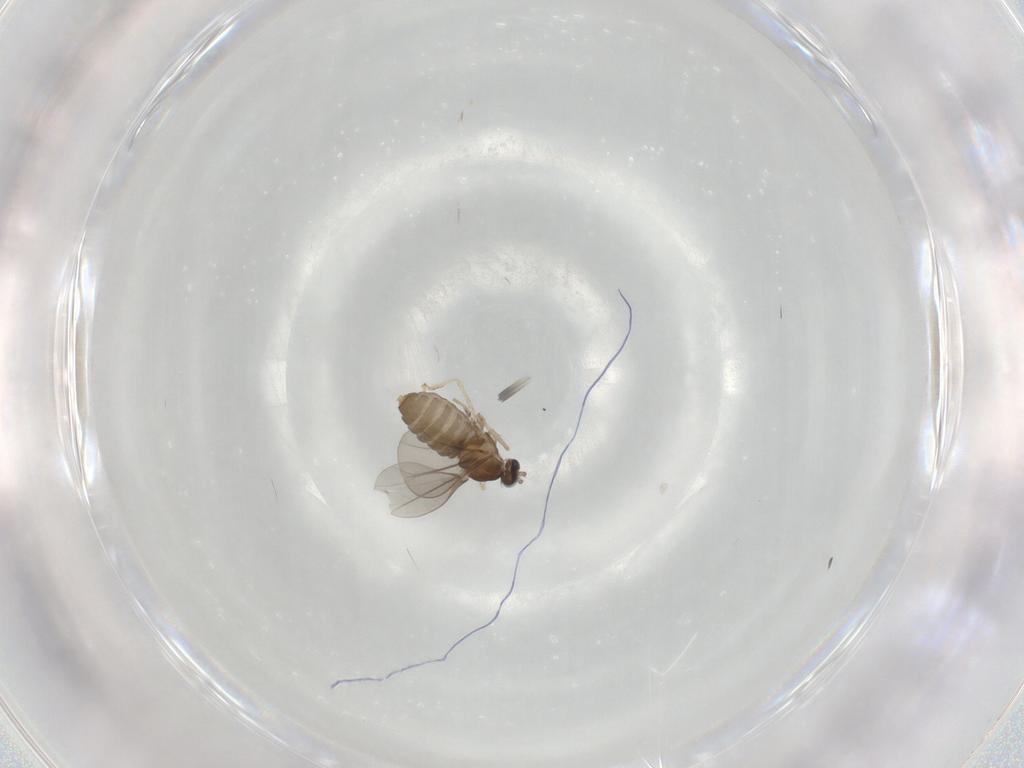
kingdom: Animalia
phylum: Arthropoda
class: Insecta
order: Diptera
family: Cecidomyiidae
